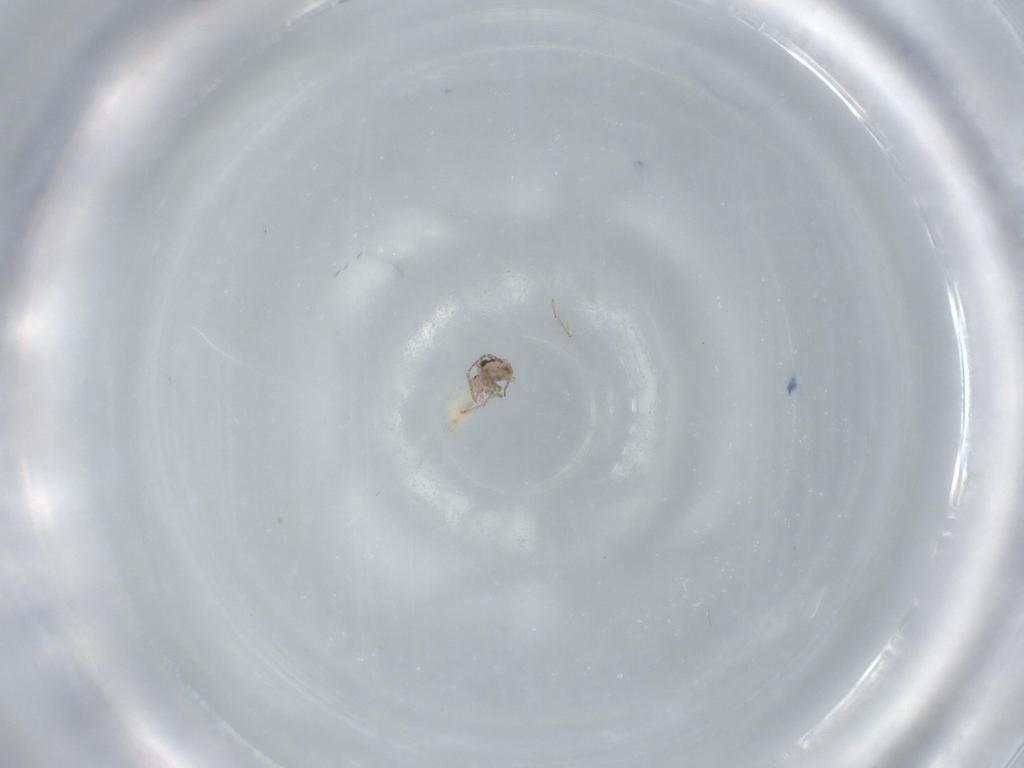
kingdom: Animalia
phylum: Arthropoda
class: Insecta
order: Psocodea
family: Lepidopsocidae
